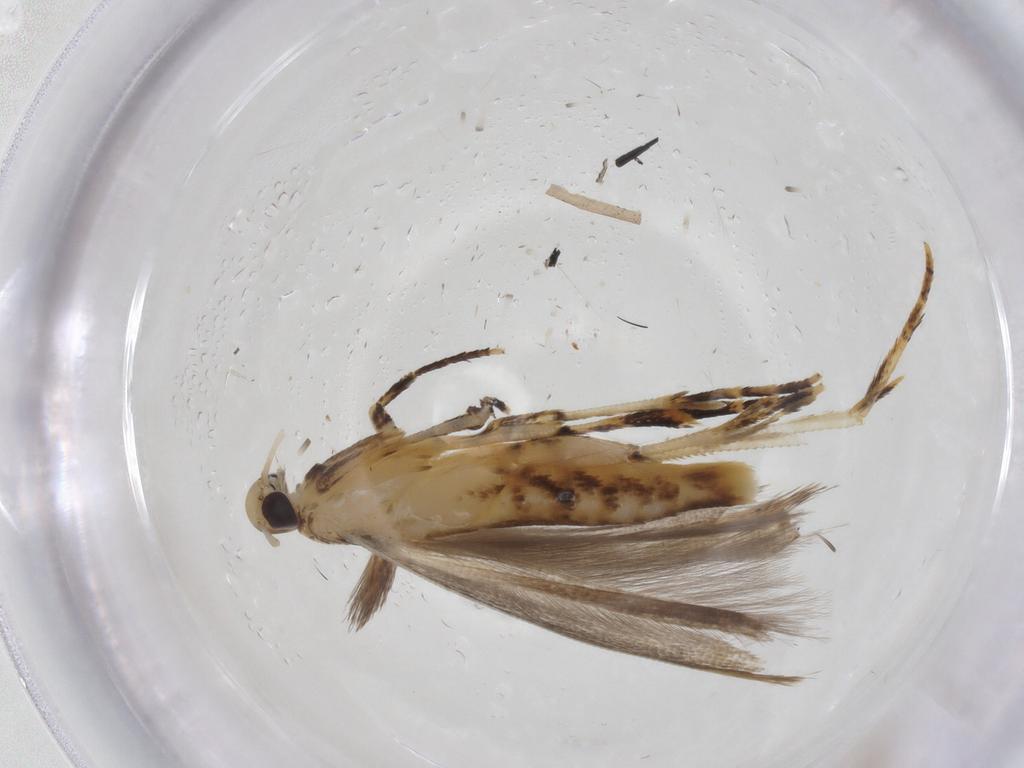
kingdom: Animalia
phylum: Arthropoda
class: Insecta
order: Lepidoptera
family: Gelechiidae
